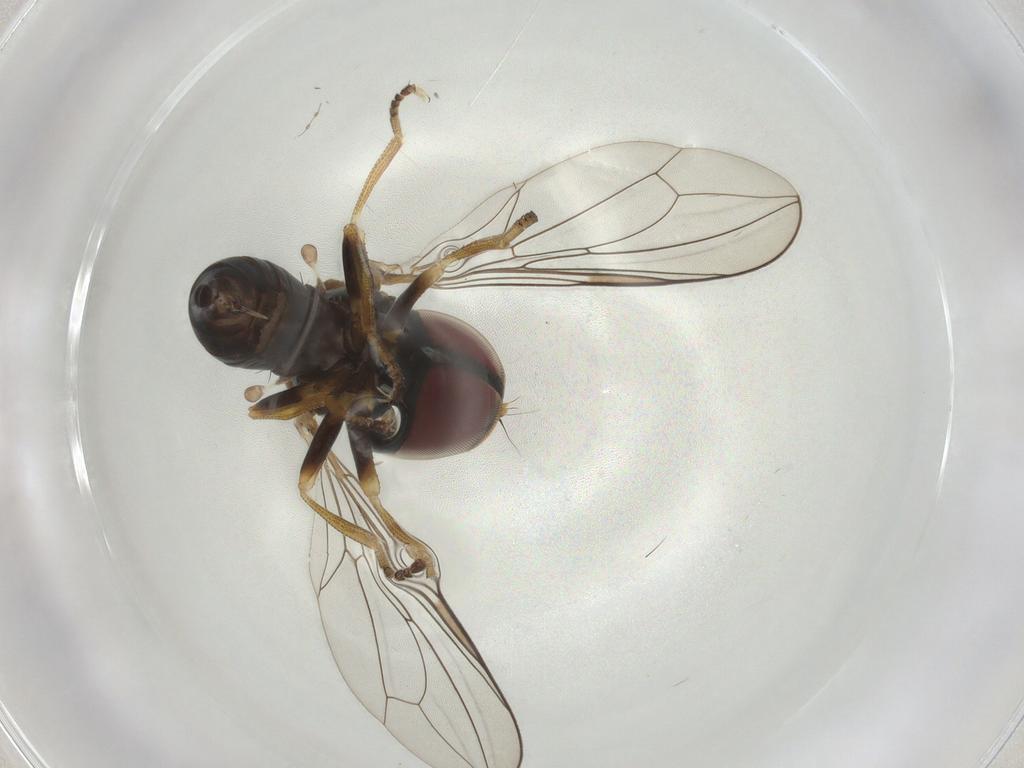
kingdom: Animalia
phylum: Arthropoda
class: Insecta
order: Diptera
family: Pipunculidae
